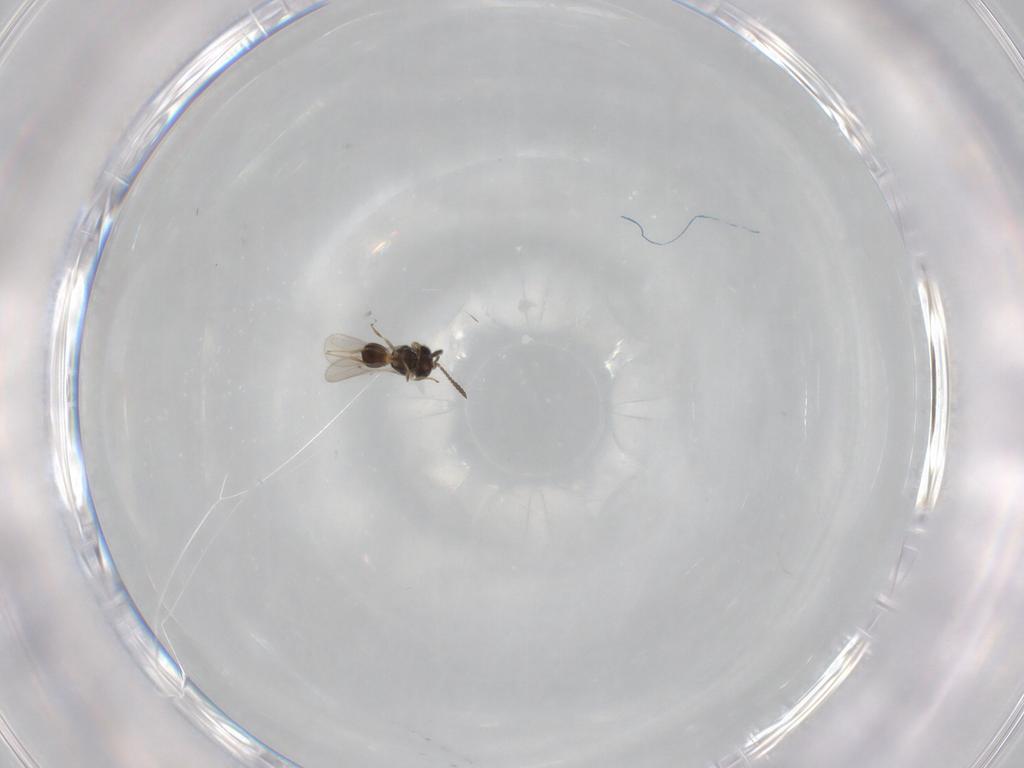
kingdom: Animalia
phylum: Arthropoda
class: Insecta
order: Hymenoptera
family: Scelionidae
